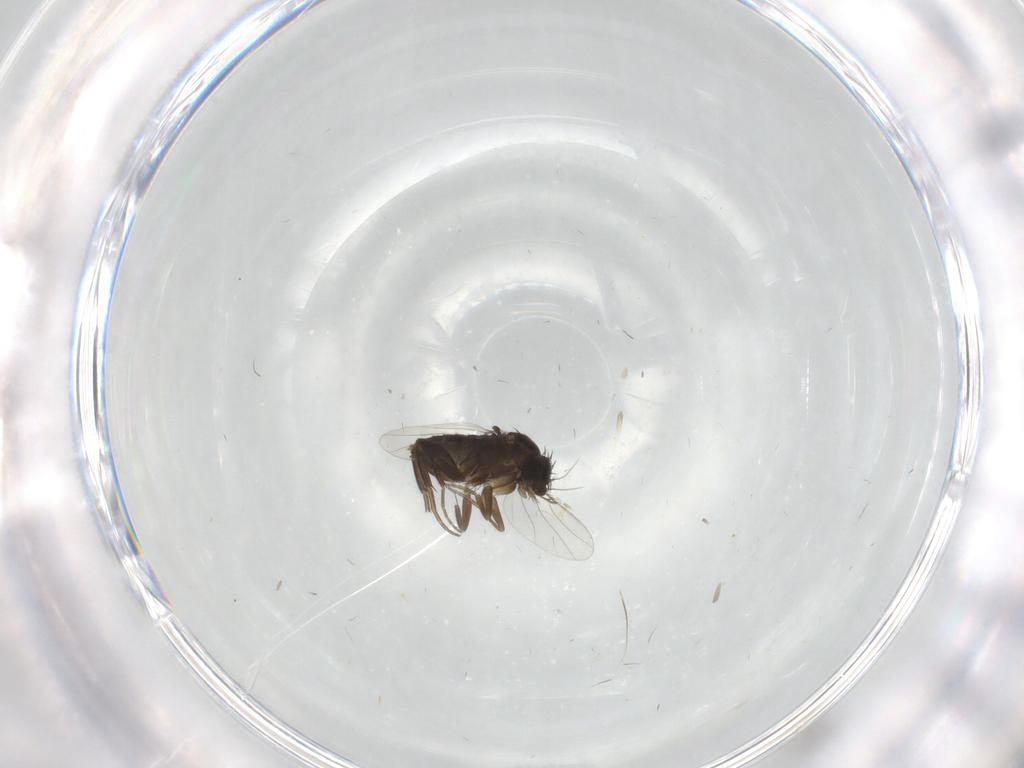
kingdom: Animalia
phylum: Arthropoda
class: Insecta
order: Diptera
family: Phoridae
